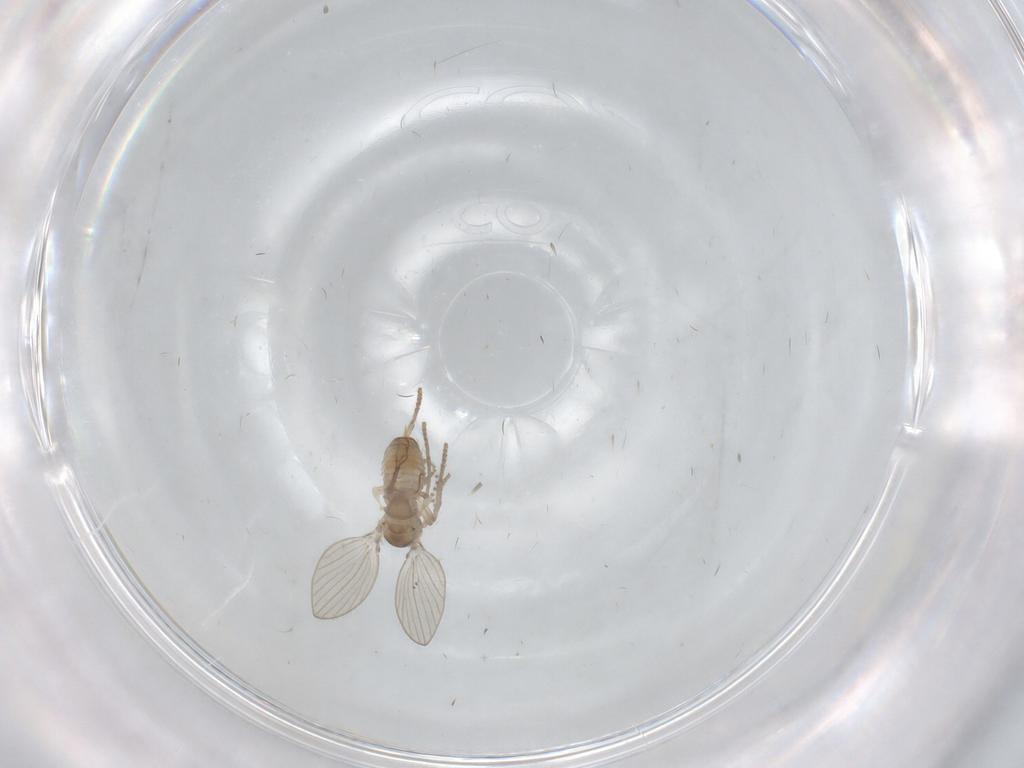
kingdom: Animalia
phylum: Arthropoda
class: Insecta
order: Diptera
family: Psychodidae
